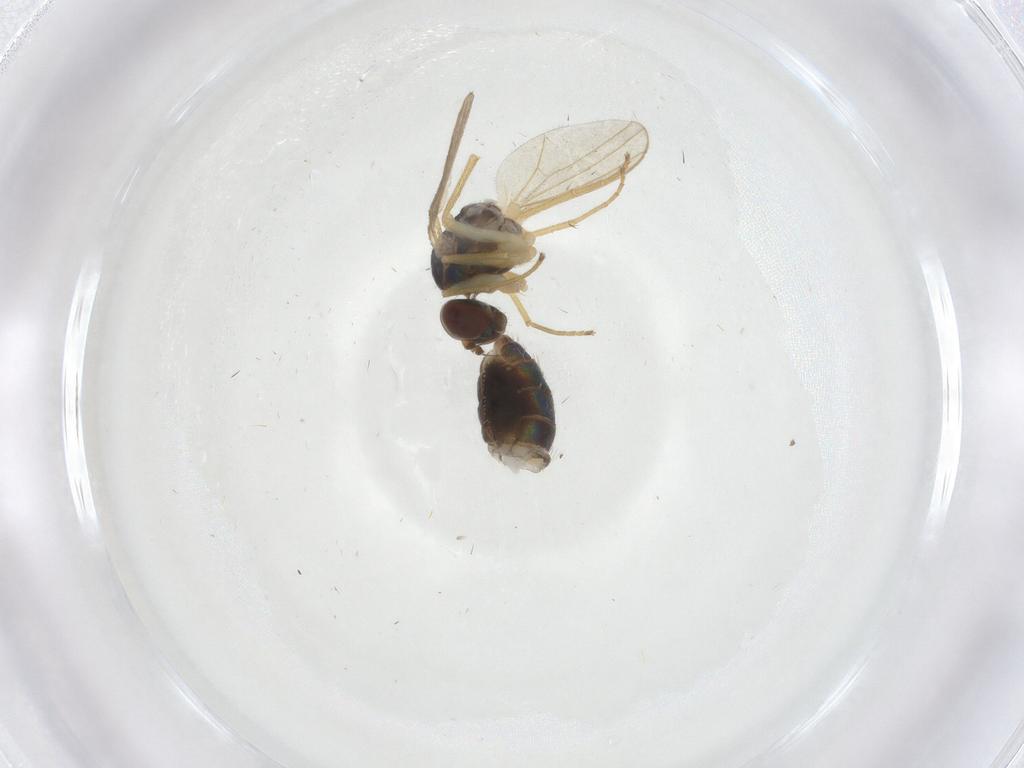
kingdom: Animalia
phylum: Arthropoda
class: Insecta
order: Diptera
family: Dolichopodidae
